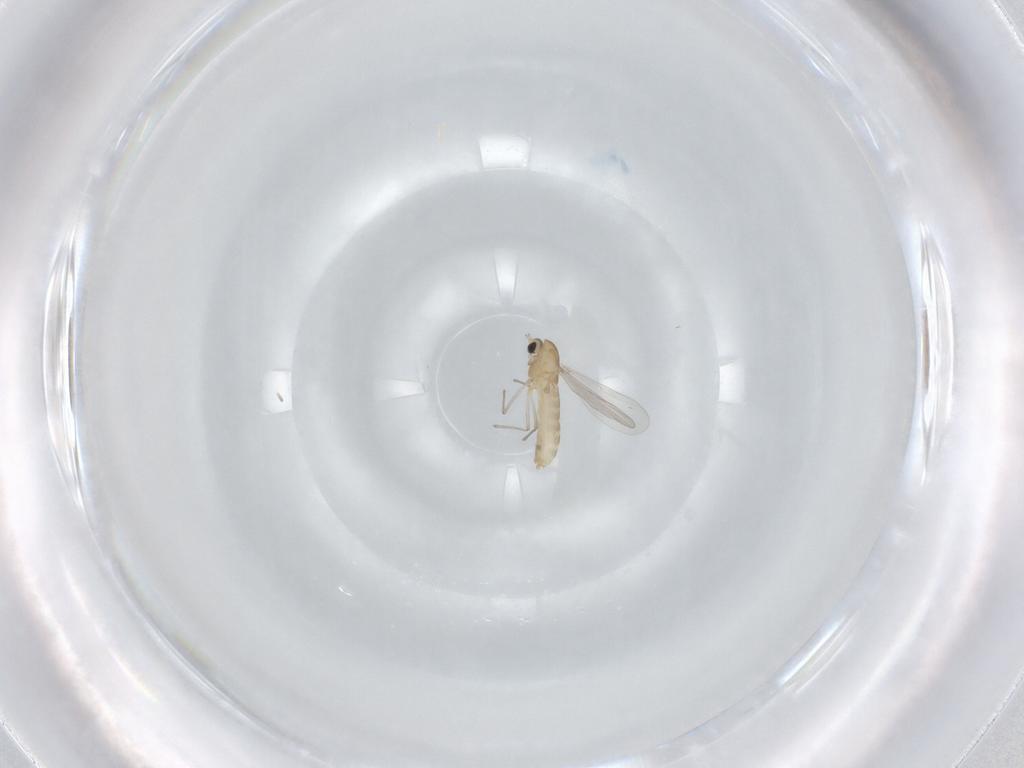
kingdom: Animalia
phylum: Arthropoda
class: Insecta
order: Diptera
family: Chironomidae
